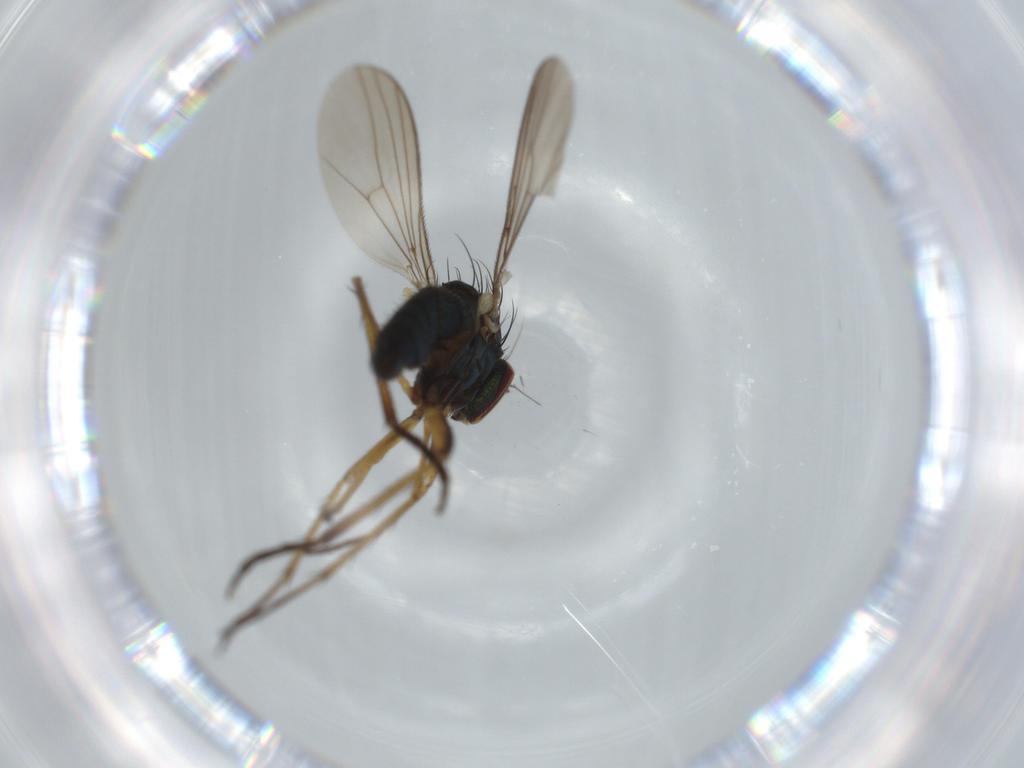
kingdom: Animalia
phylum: Arthropoda
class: Insecta
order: Diptera
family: Dolichopodidae
